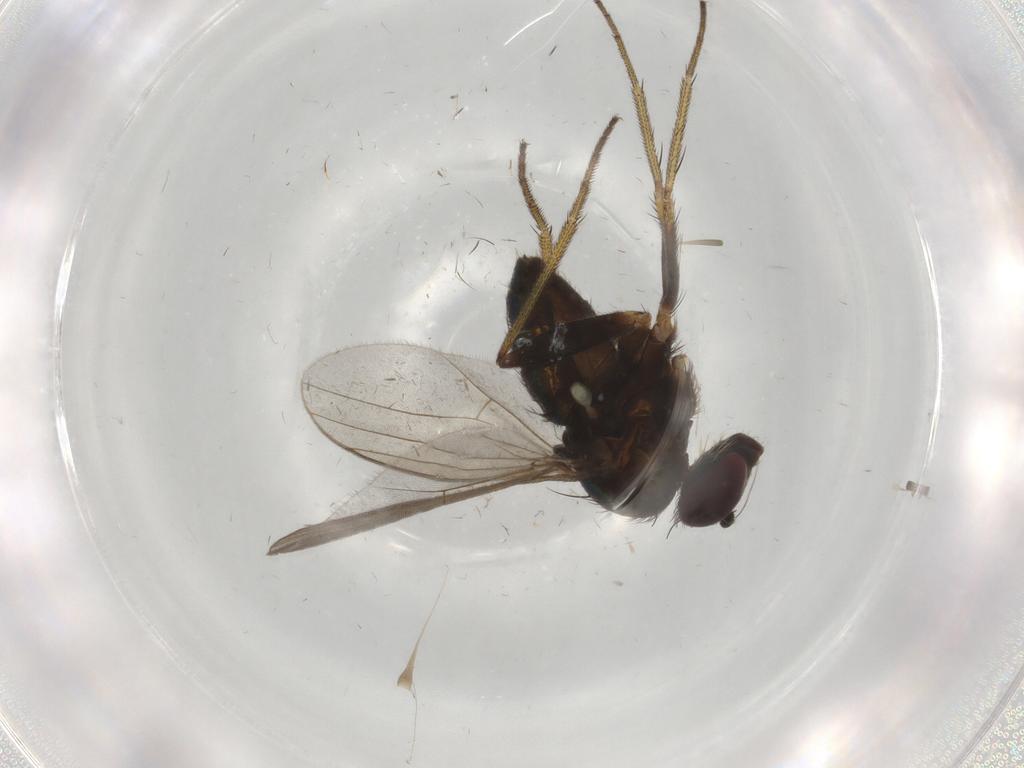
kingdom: Animalia
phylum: Arthropoda
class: Insecta
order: Diptera
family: Dolichopodidae
